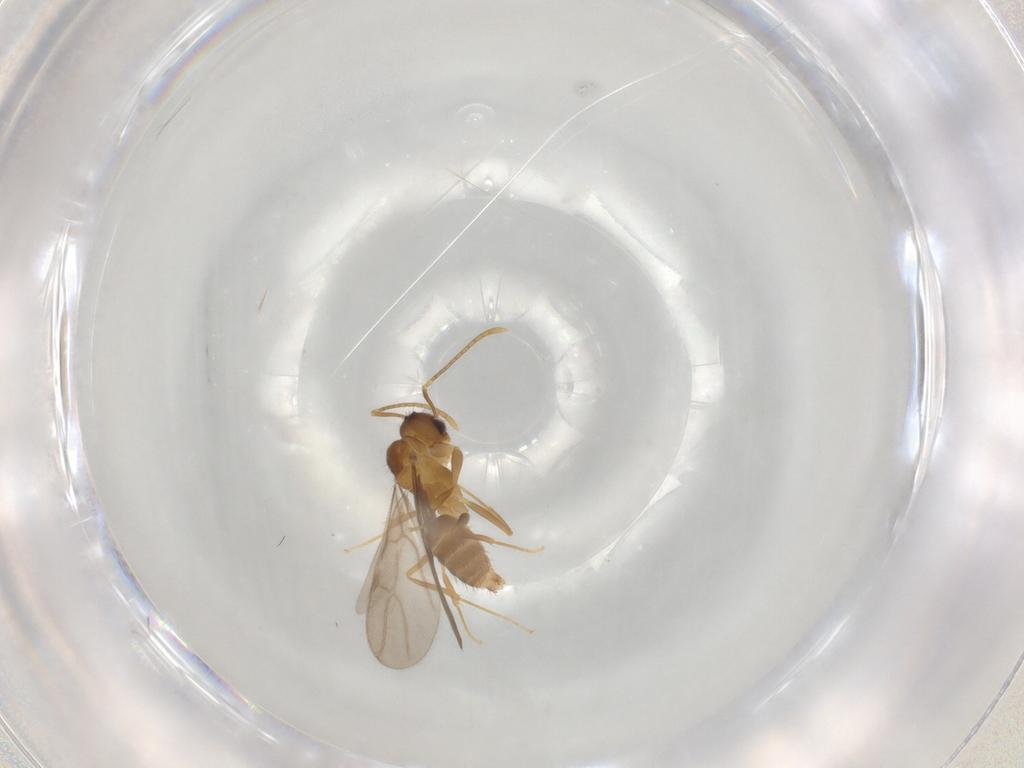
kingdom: Animalia
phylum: Arthropoda
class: Insecta
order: Hymenoptera
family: Formicidae
